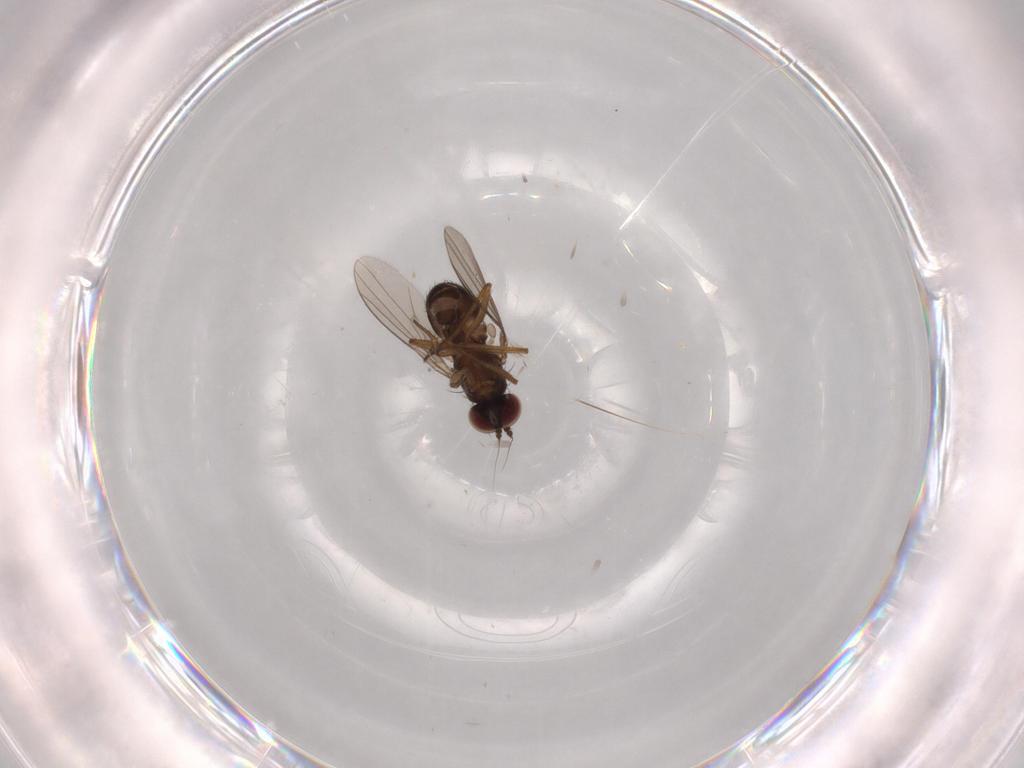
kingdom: Animalia
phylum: Arthropoda
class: Insecta
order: Diptera
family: Dolichopodidae
